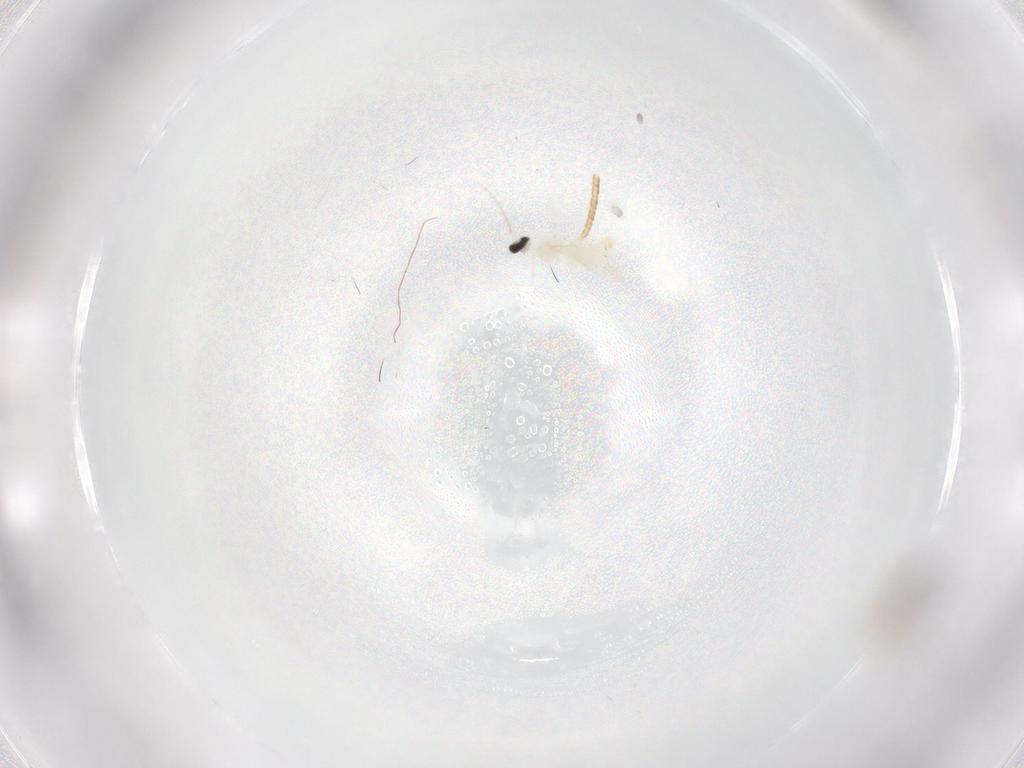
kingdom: Animalia
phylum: Arthropoda
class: Insecta
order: Diptera
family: Cecidomyiidae
